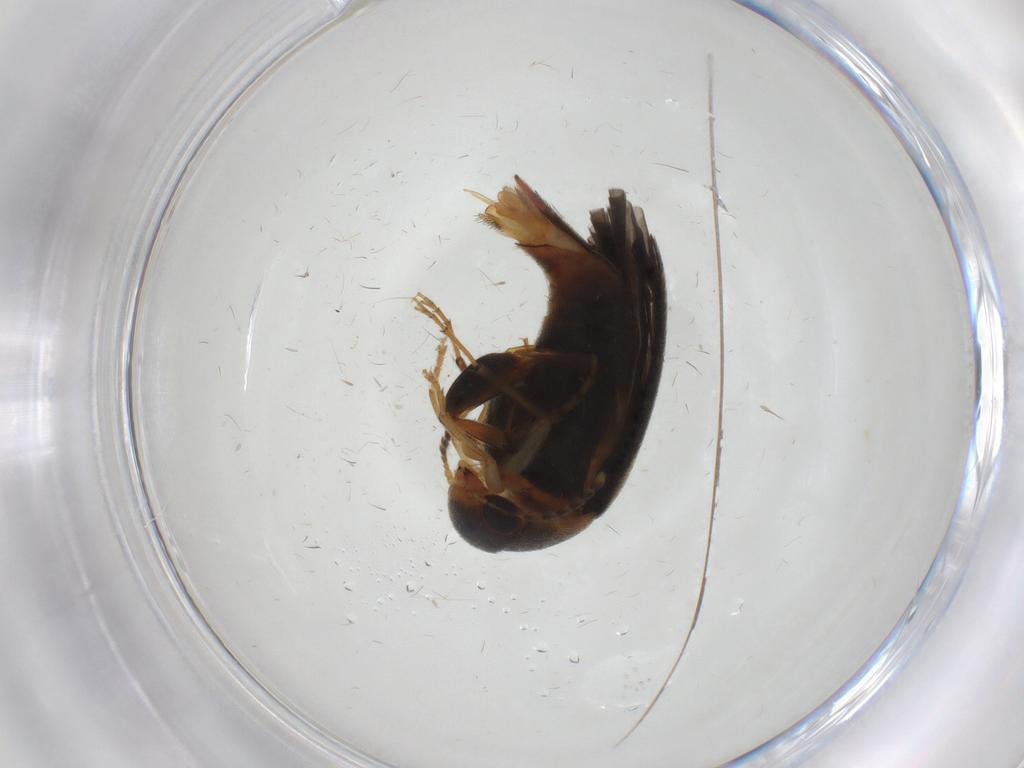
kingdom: Animalia
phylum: Arthropoda
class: Insecta
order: Coleoptera
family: Mordellidae
